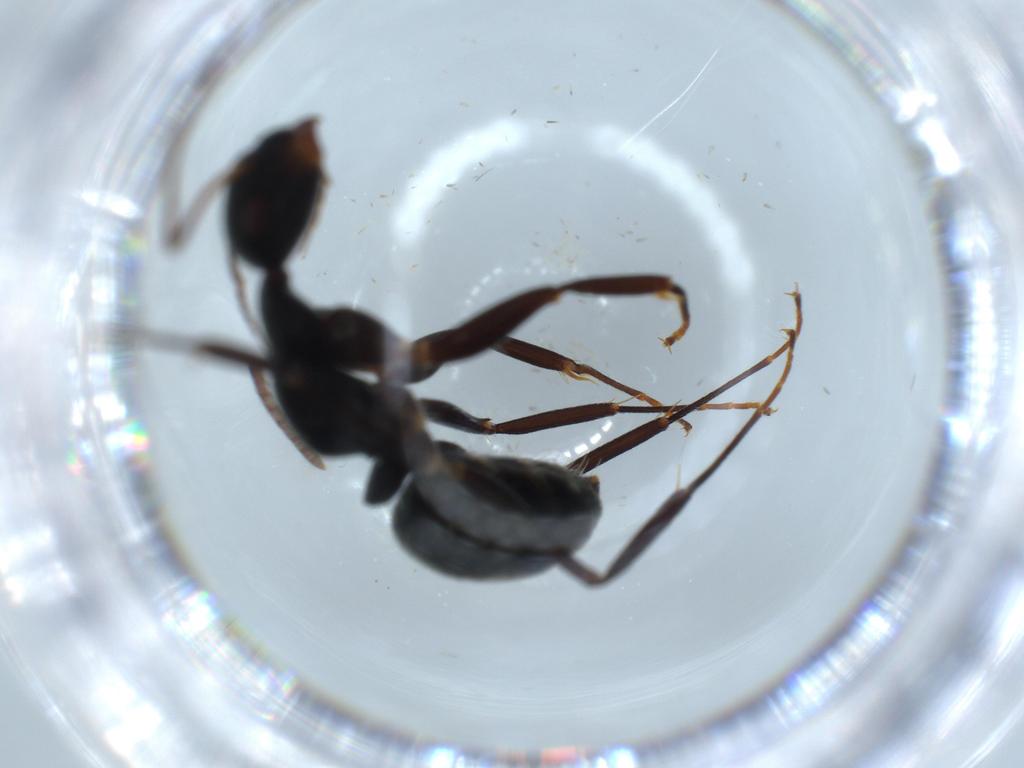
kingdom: Animalia
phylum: Arthropoda
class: Insecta
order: Hymenoptera
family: Formicidae
